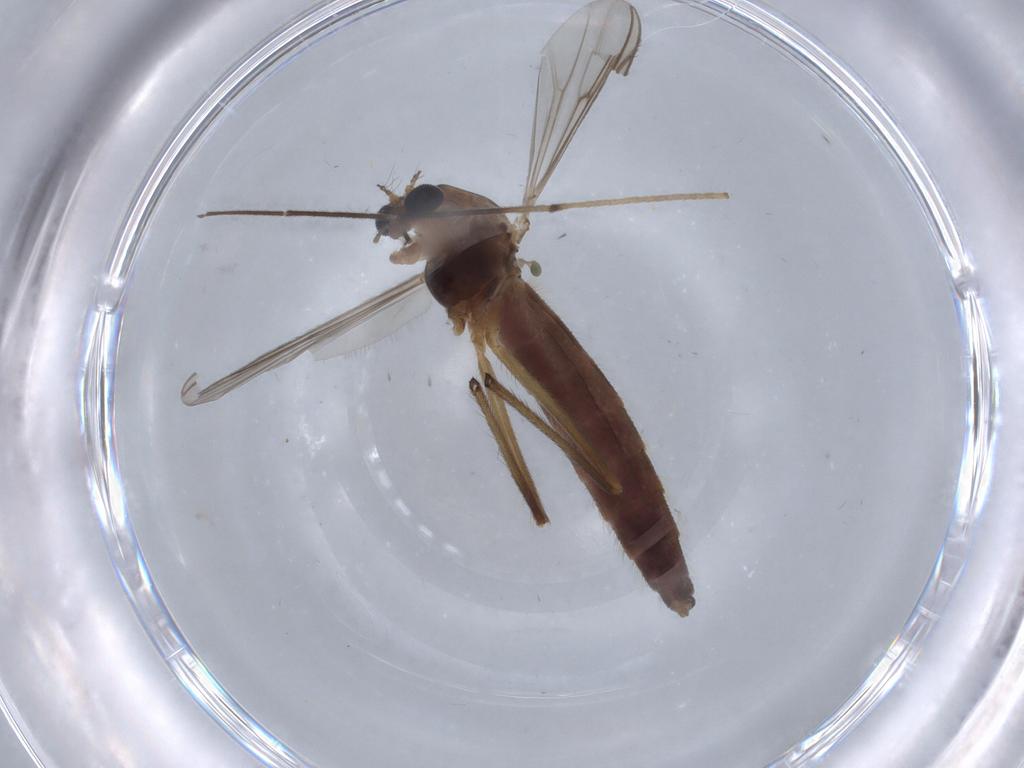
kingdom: Animalia
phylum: Arthropoda
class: Insecta
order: Diptera
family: Chironomidae
